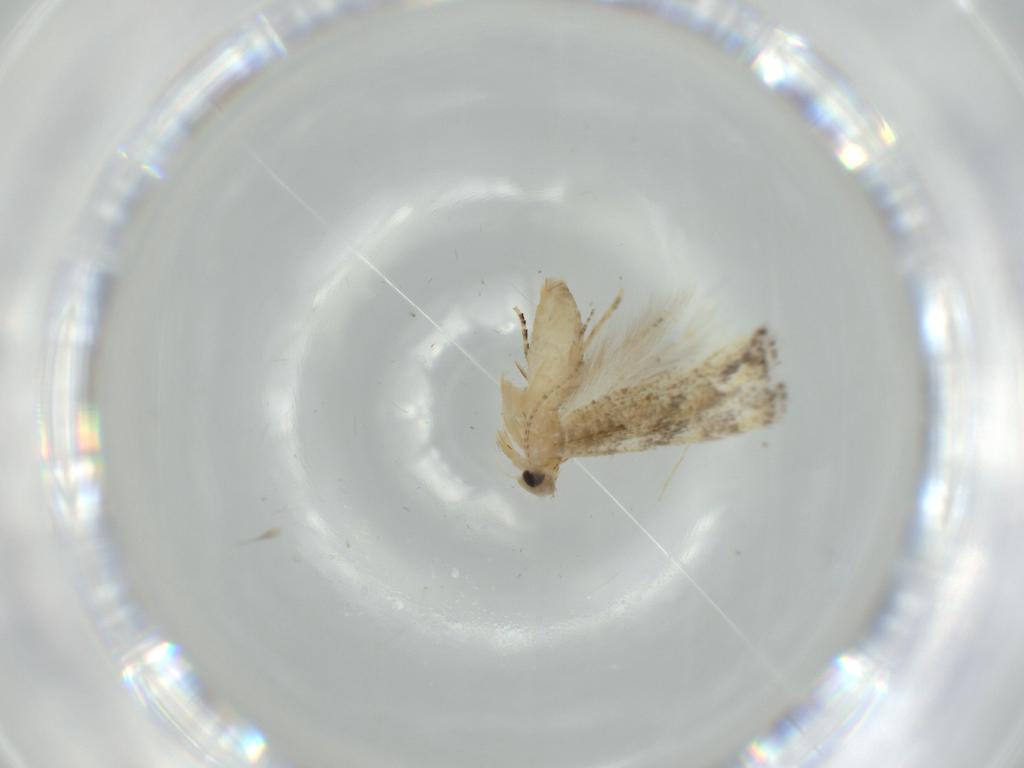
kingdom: Animalia
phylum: Arthropoda
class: Insecta
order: Lepidoptera
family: Bucculatricidae
